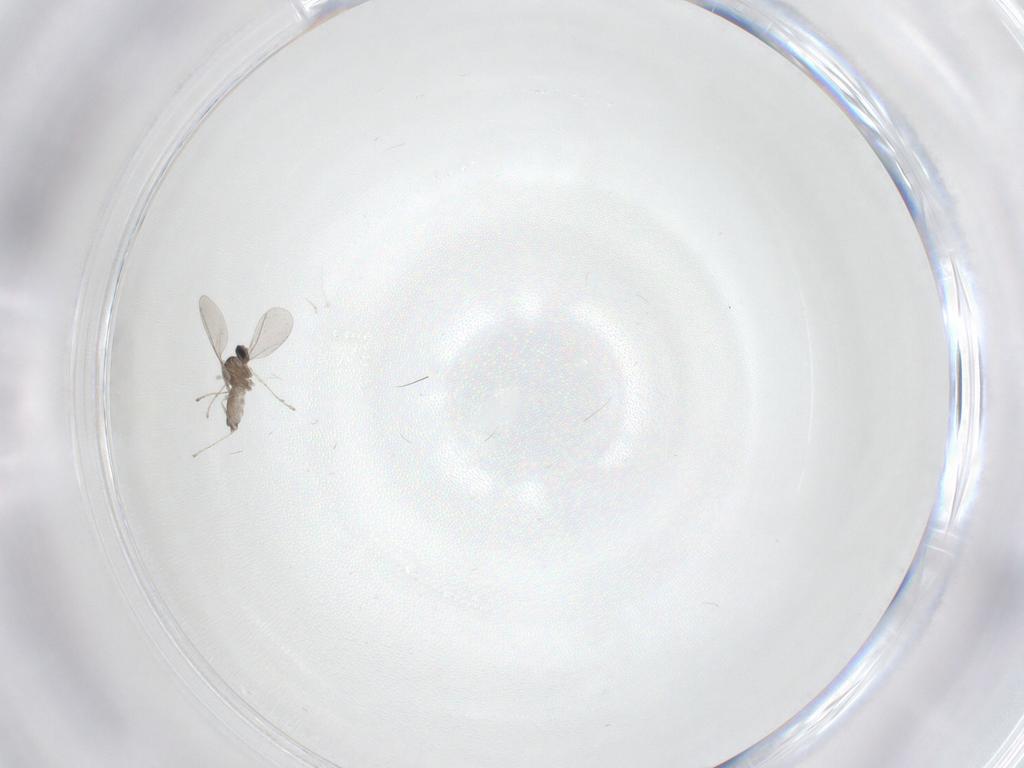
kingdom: Animalia
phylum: Arthropoda
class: Insecta
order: Diptera
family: Cecidomyiidae
